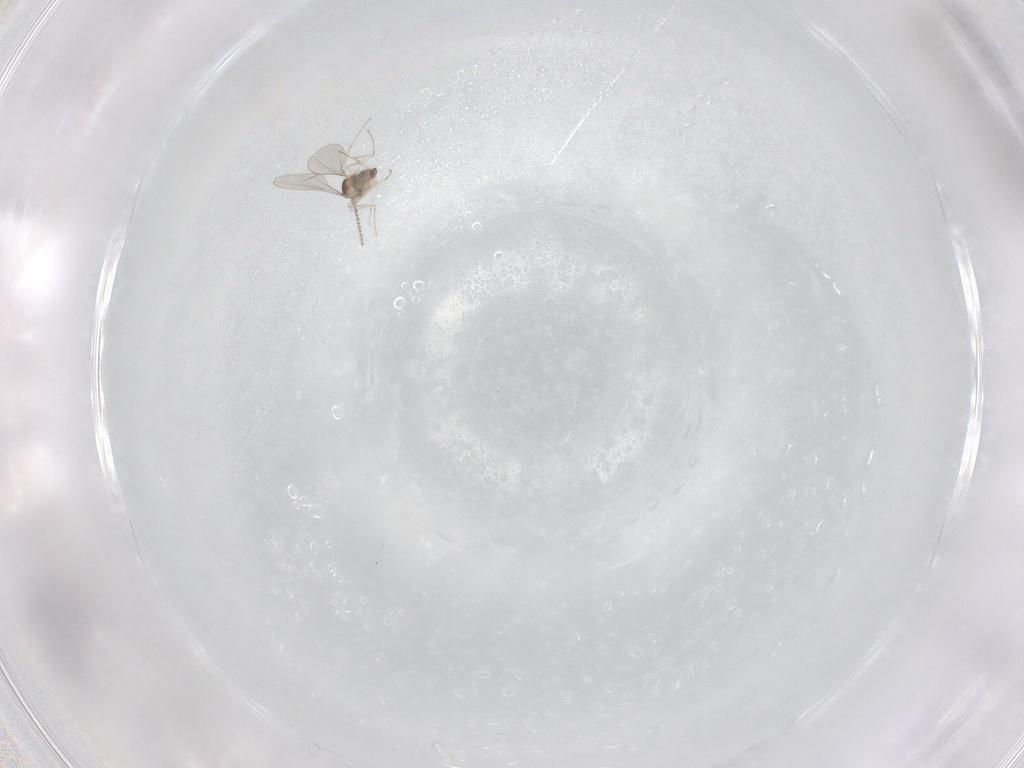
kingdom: Animalia
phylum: Arthropoda
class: Insecta
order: Diptera
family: Cecidomyiidae
